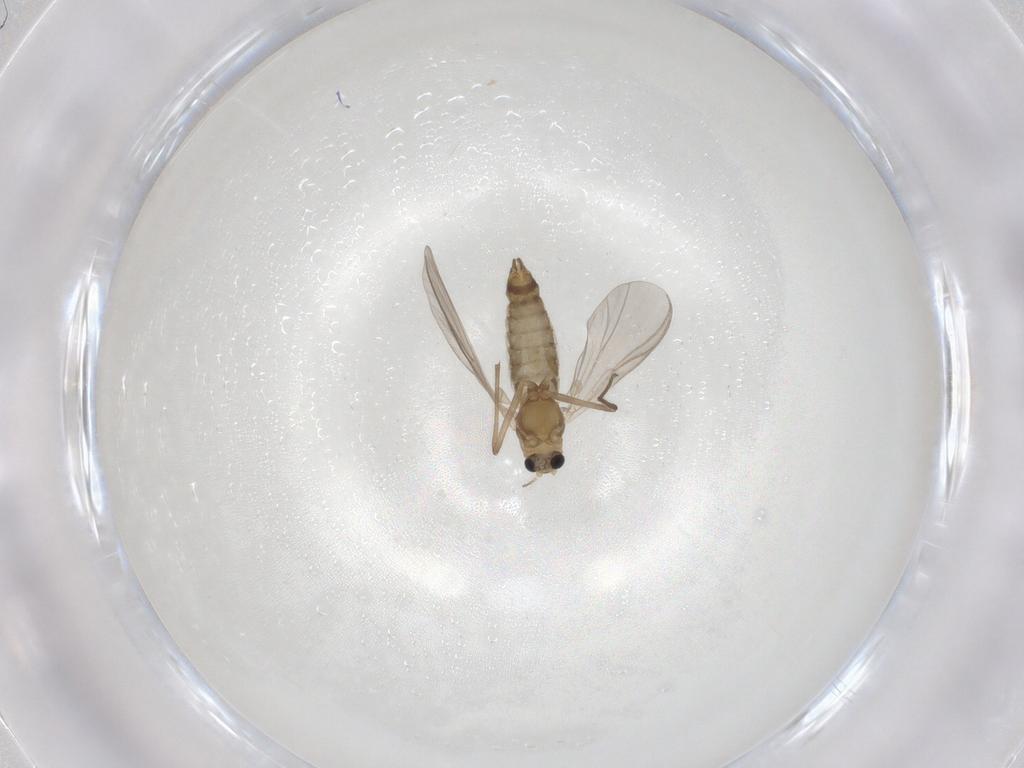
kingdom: Animalia
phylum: Arthropoda
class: Insecta
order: Diptera
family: Chironomidae
